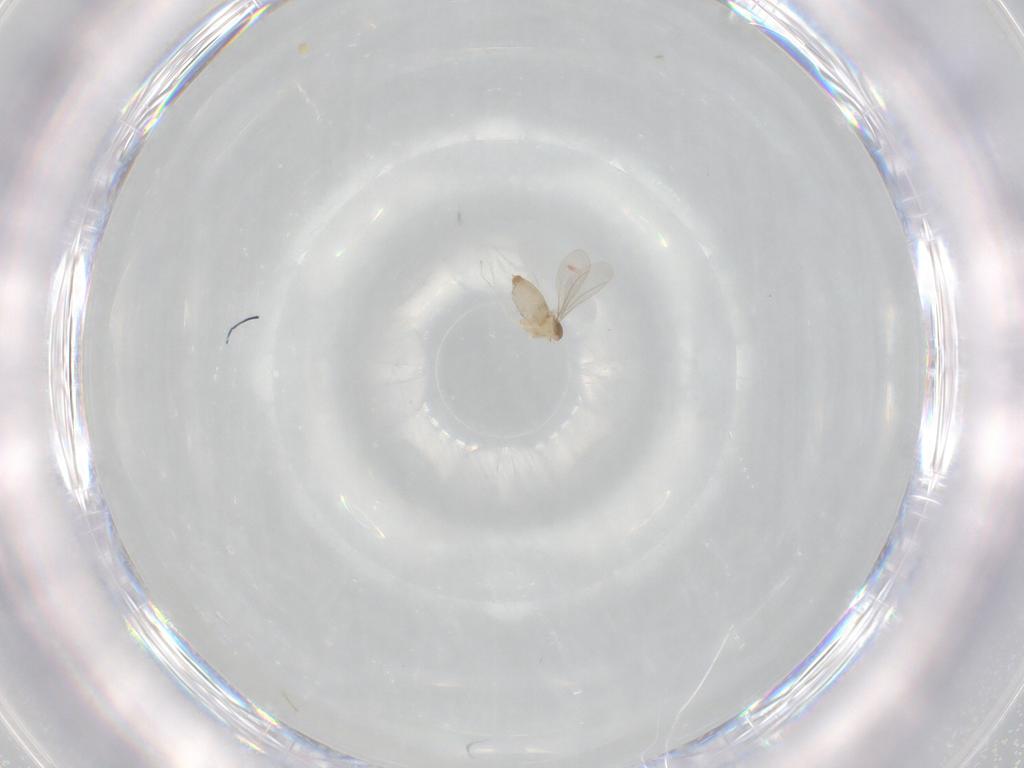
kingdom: Animalia
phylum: Arthropoda
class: Insecta
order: Diptera
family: Cecidomyiidae
